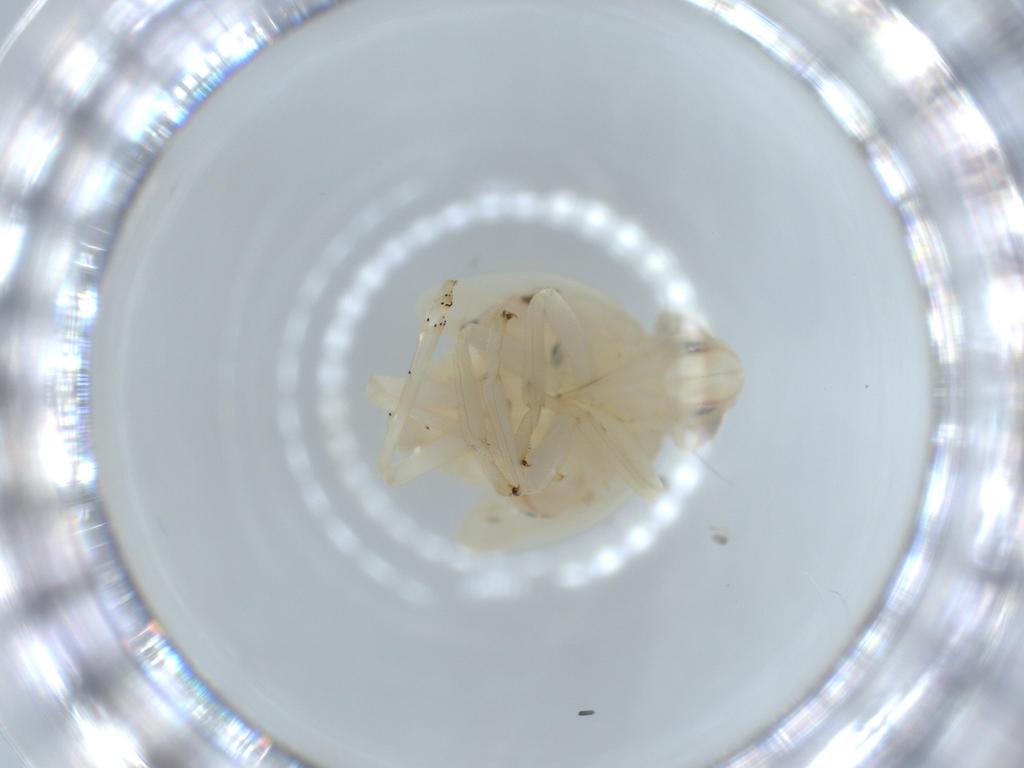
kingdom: Animalia
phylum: Arthropoda
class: Insecta
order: Hemiptera
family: Nogodinidae
